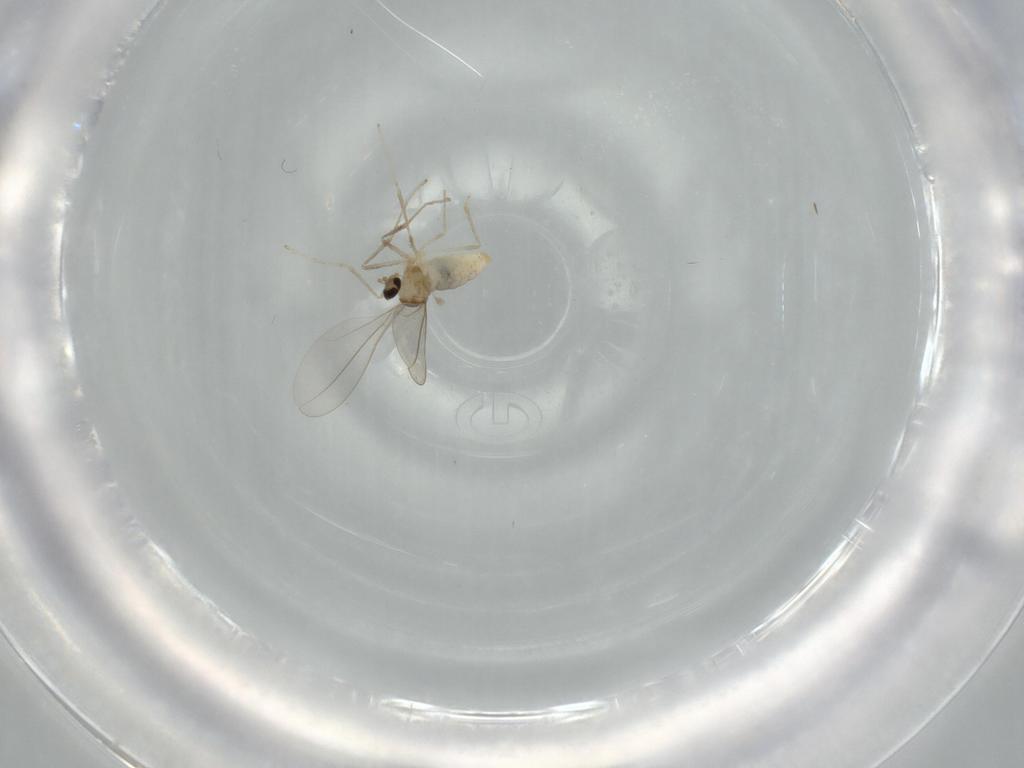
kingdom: Animalia
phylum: Arthropoda
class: Insecta
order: Diptera
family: Cecidomyiidae
